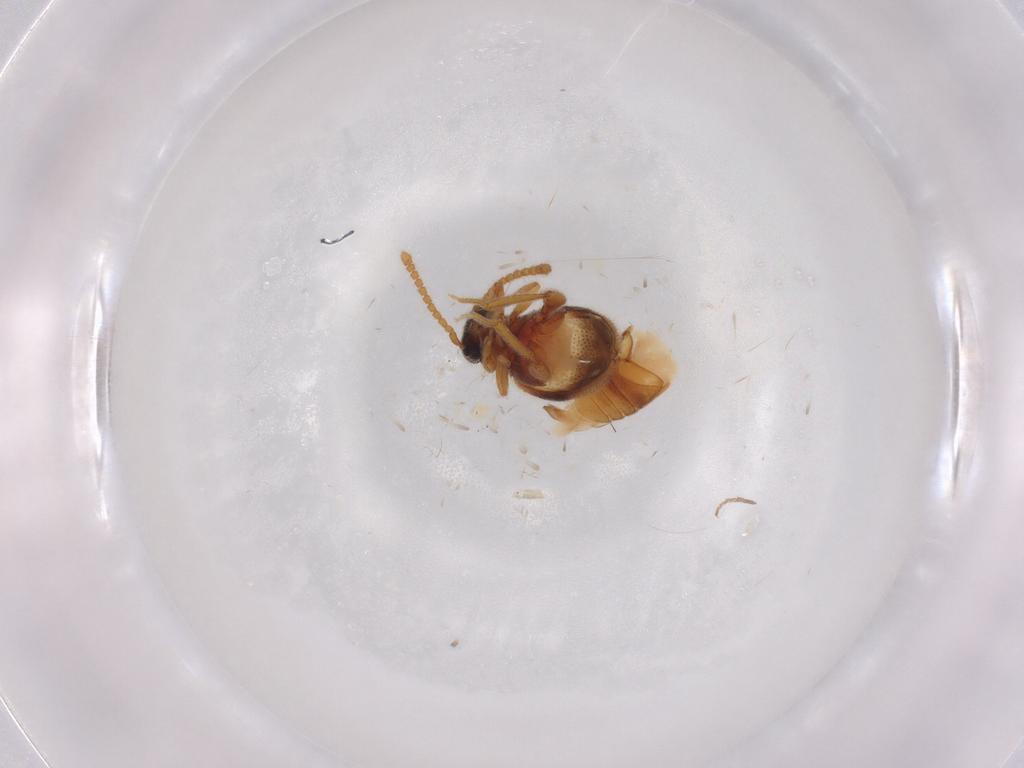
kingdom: Animalia
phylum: Arthropoda
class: Insecta
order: Coleoptera
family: Aderidae
